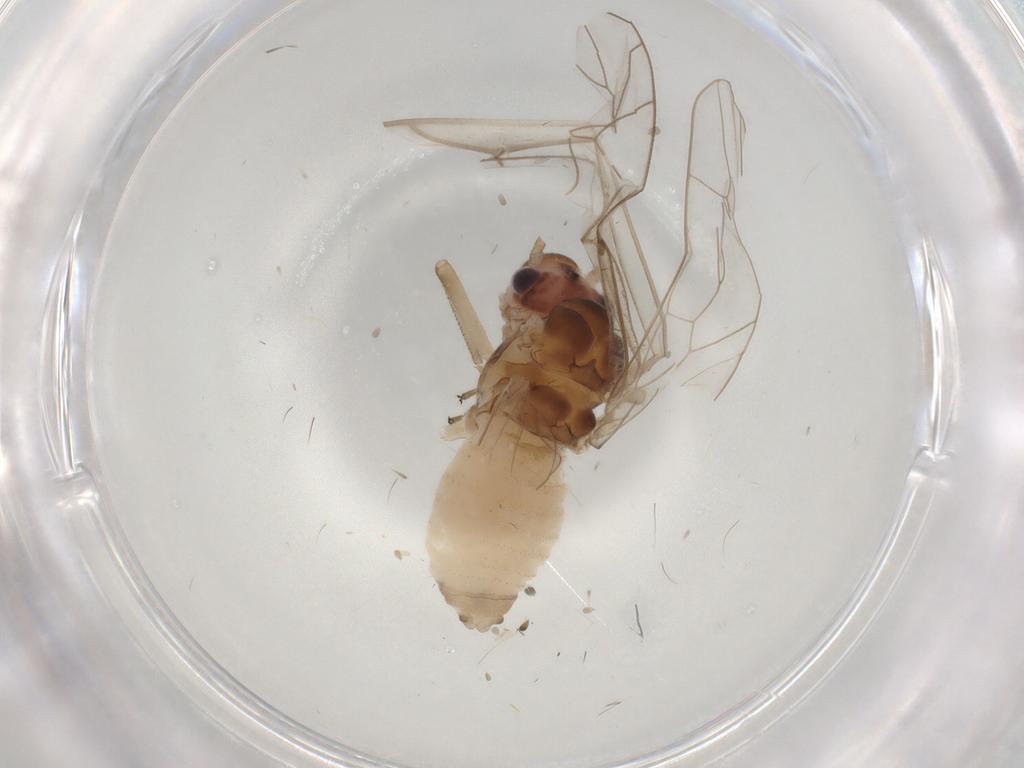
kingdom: Animalia
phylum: Arthropoda
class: Insecta
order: Psocodea
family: Stenopsocidae
